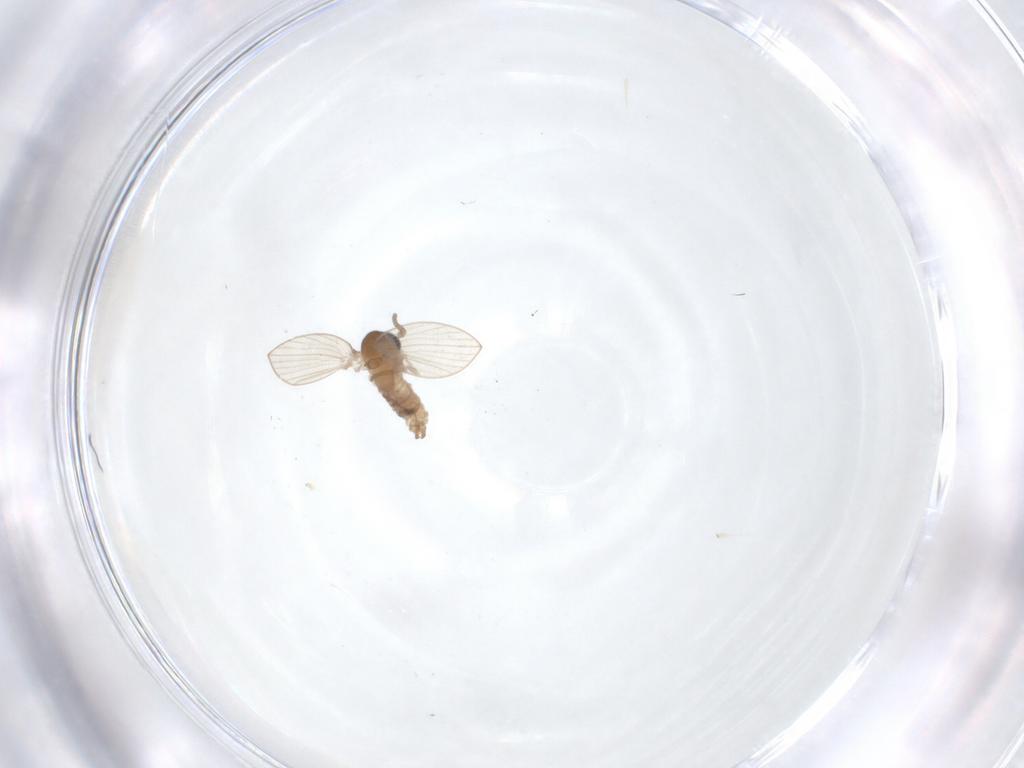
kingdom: Animalia
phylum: Arthropoda
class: Insecta
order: Diptera
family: Psychodidae
